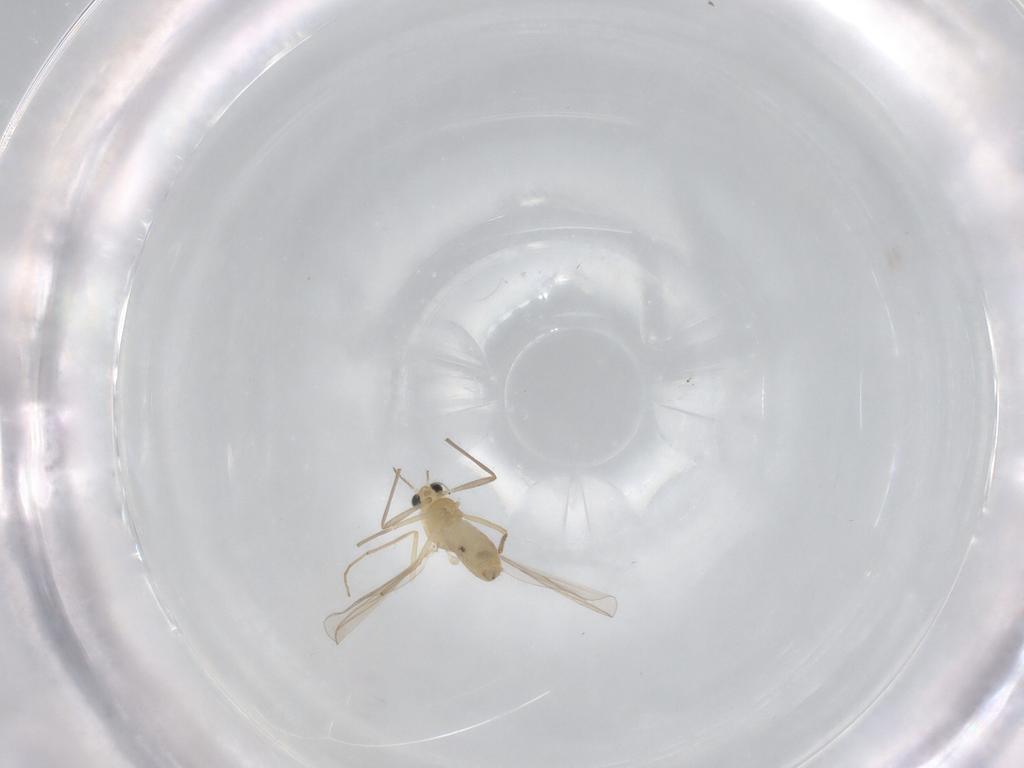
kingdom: Animalia
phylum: Arthropoda
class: Insecta
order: Diptera
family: Chironomidae
